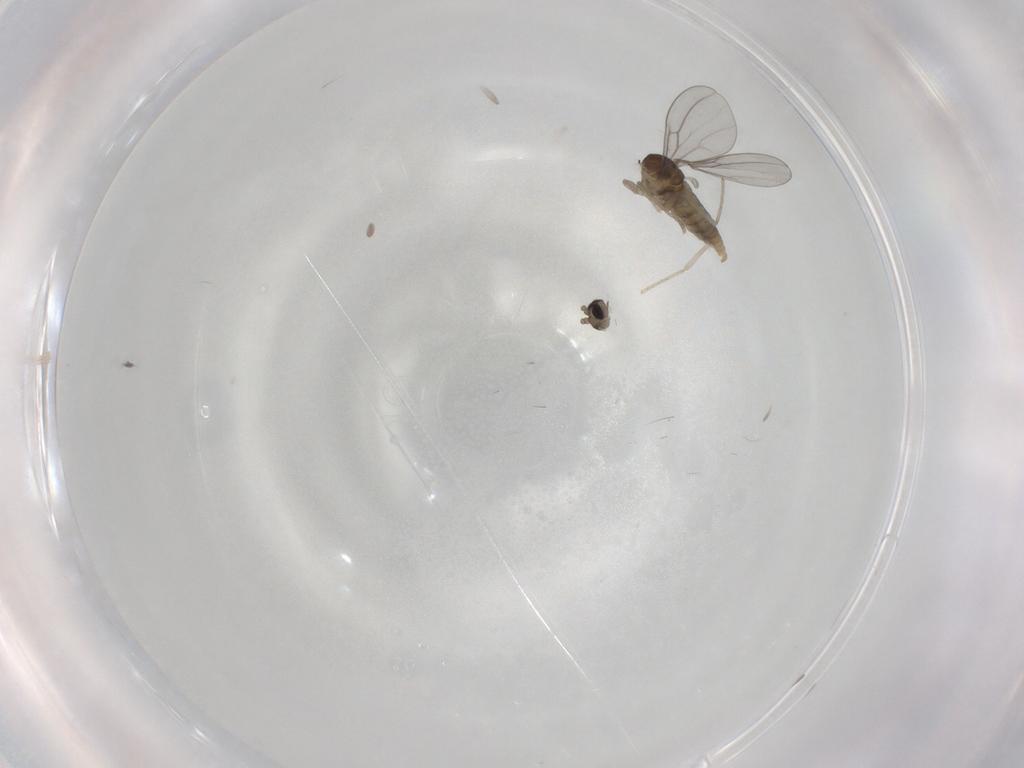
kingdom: Animalia
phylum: Arthropoda
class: Insecta
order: Diptera
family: Cecidomyiidae
